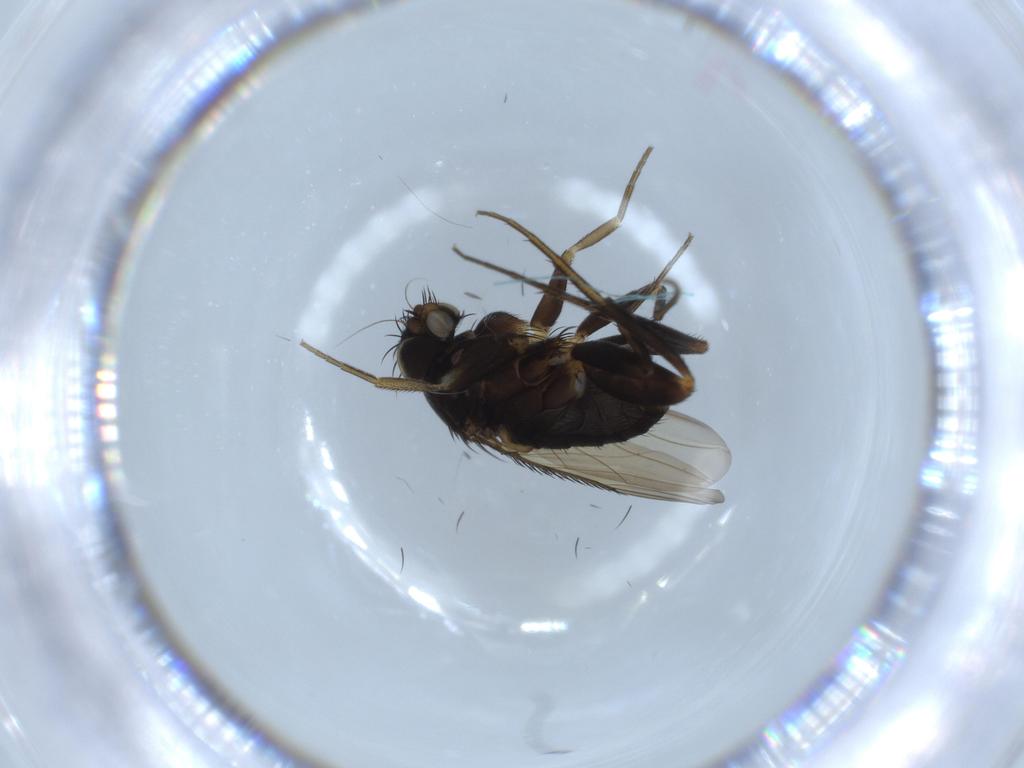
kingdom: Animalia
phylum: Arthropoda
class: Insecta
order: Diptera
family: Phoridae
